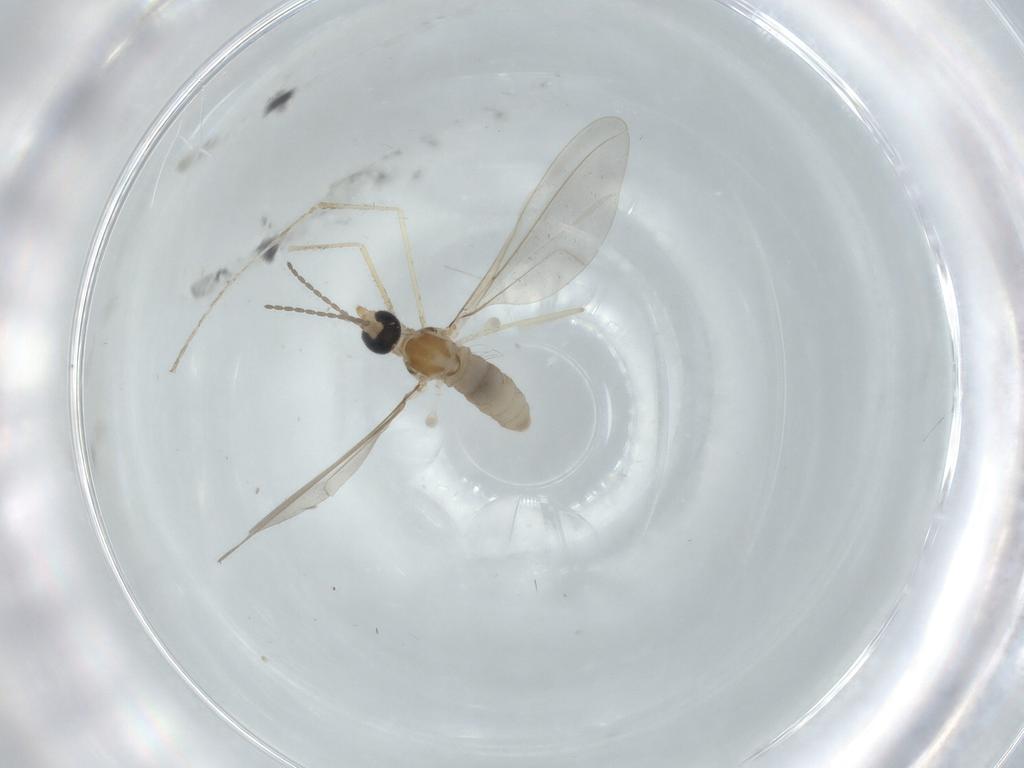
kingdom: Animalia
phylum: Arthropoda
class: Insecta
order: Diptera
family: Cecidomyiidae
